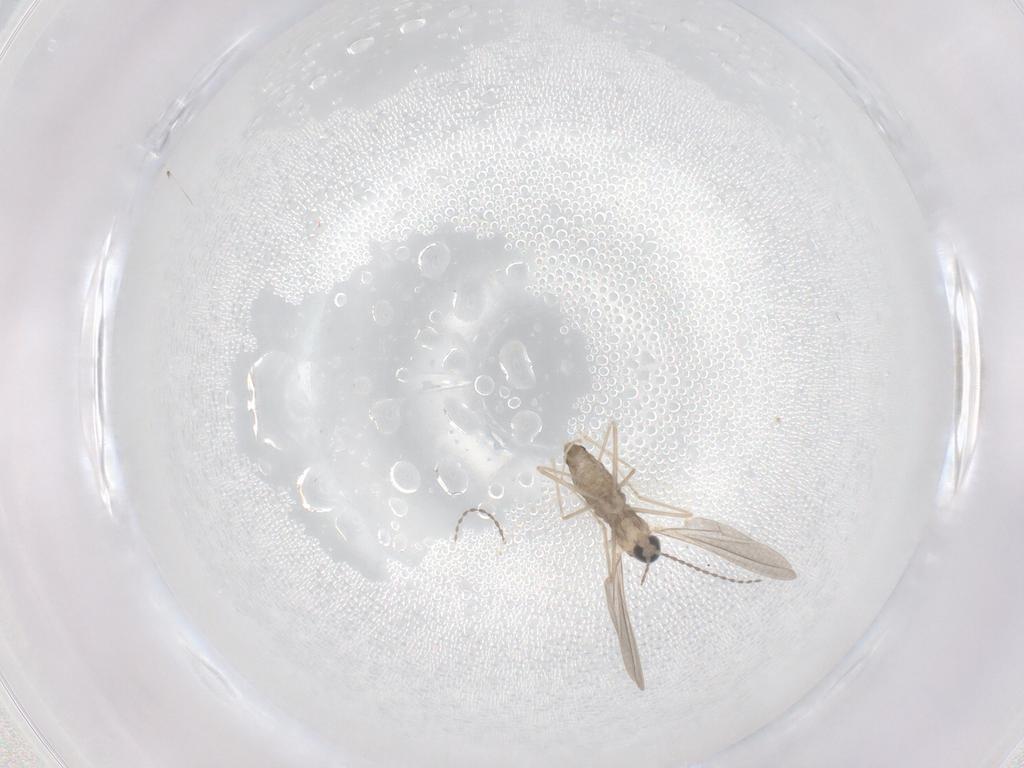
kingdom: Animalia
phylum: Arthropoda
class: Insecta
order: Diptera
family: Cecidomyiidae
